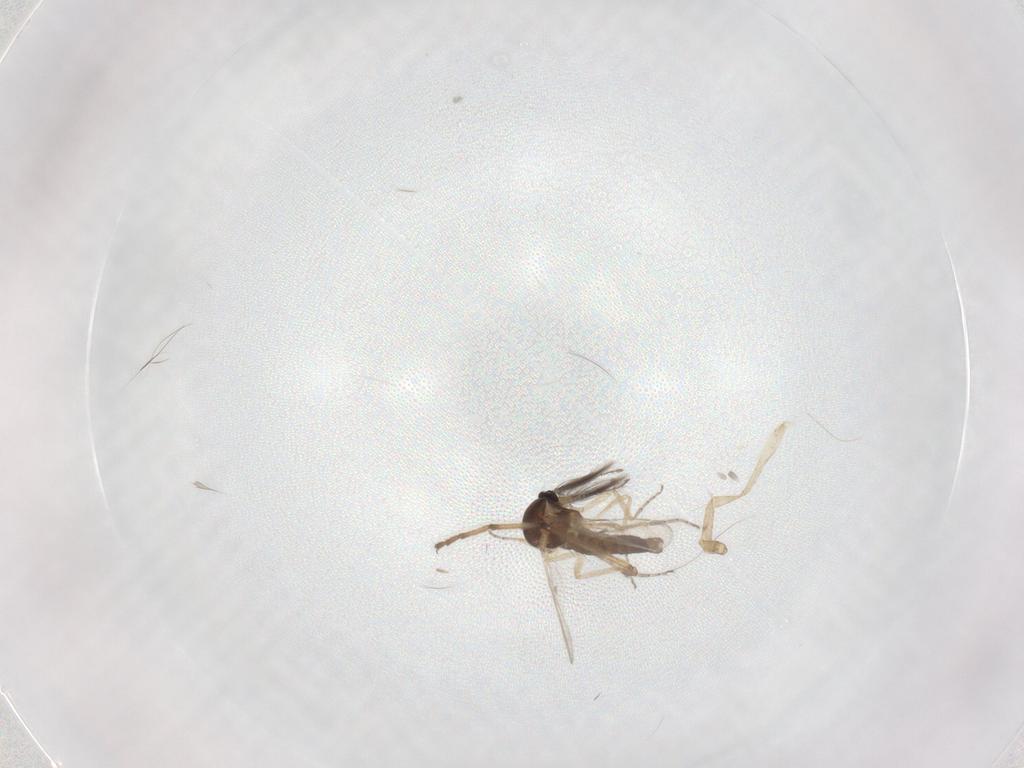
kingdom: Animalia
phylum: Arthropoda
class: Insecta
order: Diptera
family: Ceratopogonidae
